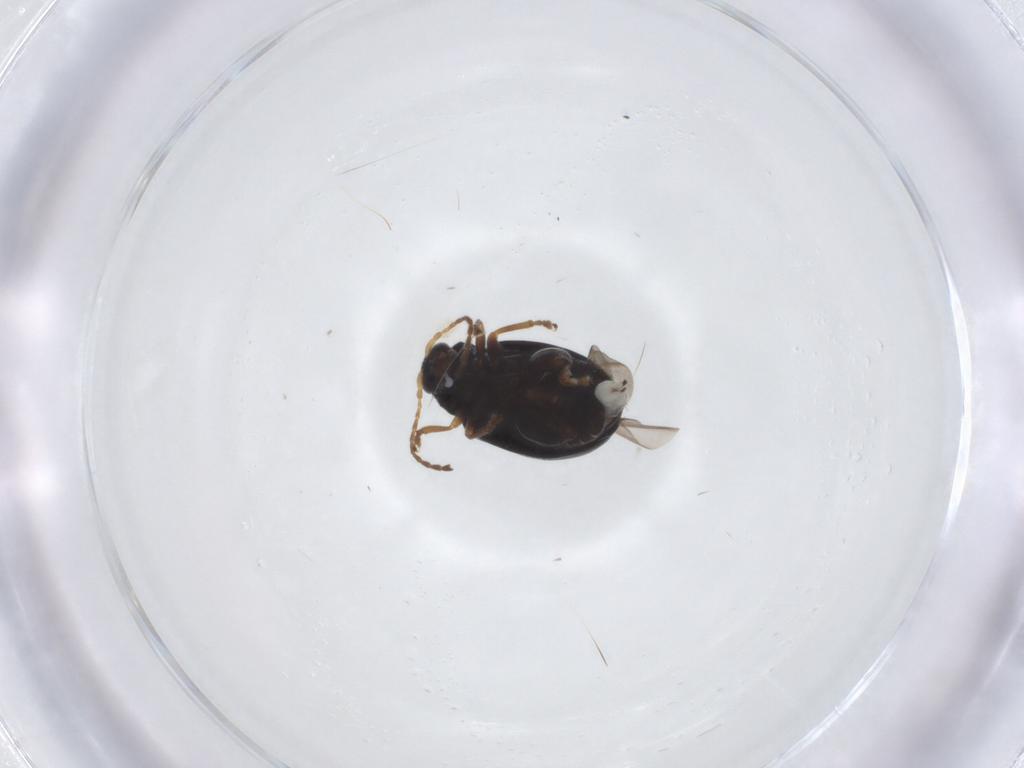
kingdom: Animalia
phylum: Arthropoda
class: Insecta
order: Coleoptera
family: Chrysomelidae
